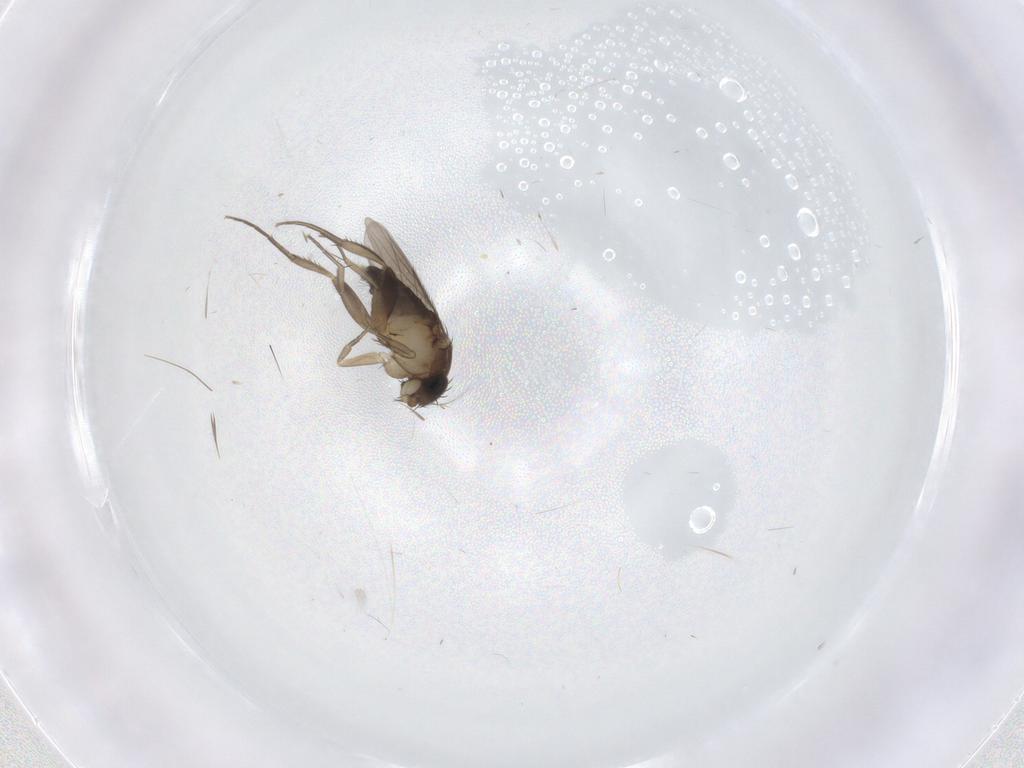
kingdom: Animalia
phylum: Arthropoda
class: Insecta
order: Diptera
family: Phoridae
